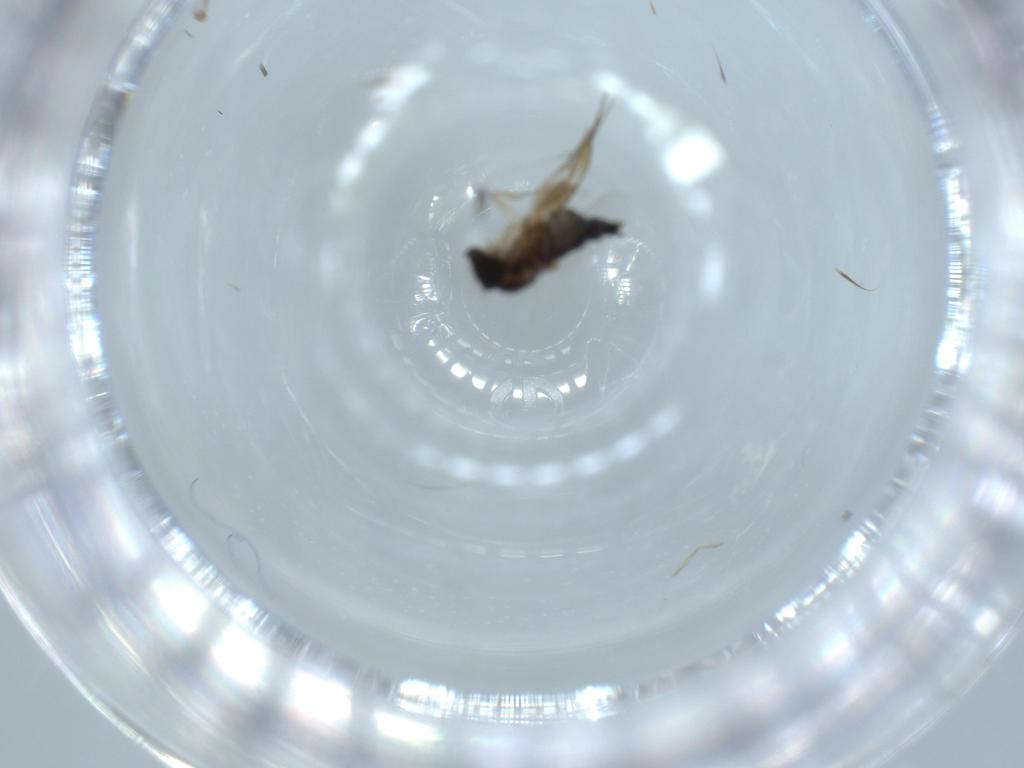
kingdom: Animalia
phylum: Arthropoda
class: Insecta
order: Diptera
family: Phoridae
